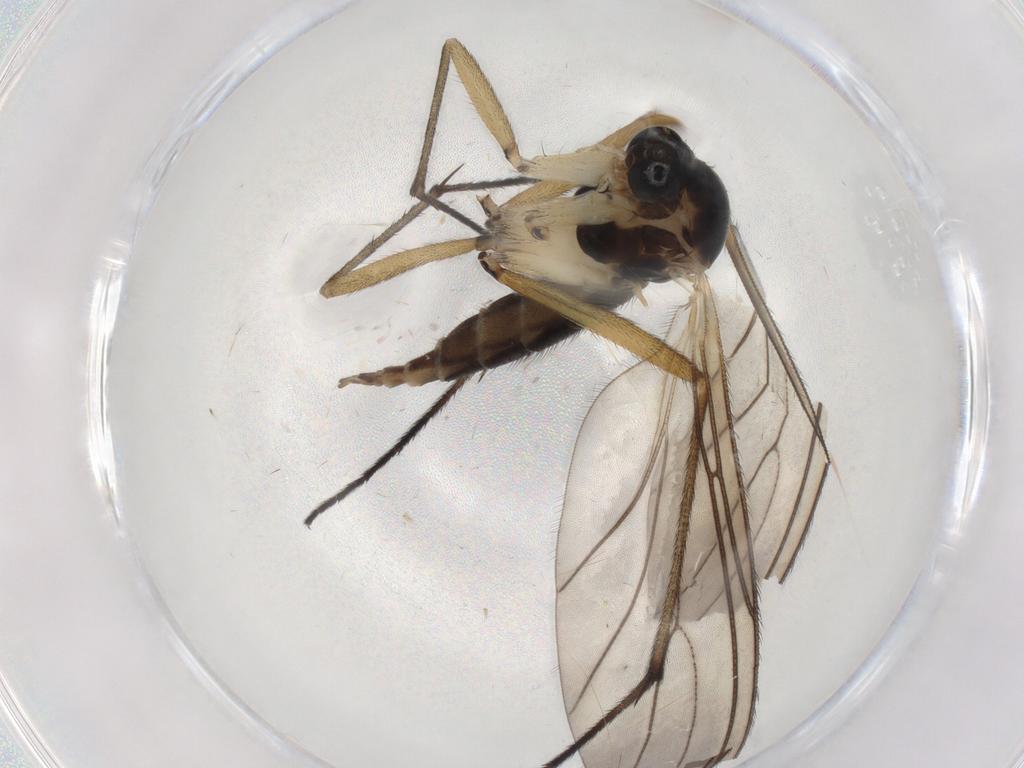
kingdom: Animalia
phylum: Arthropoda
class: Insecta
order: Diptera
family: Sciaridae
